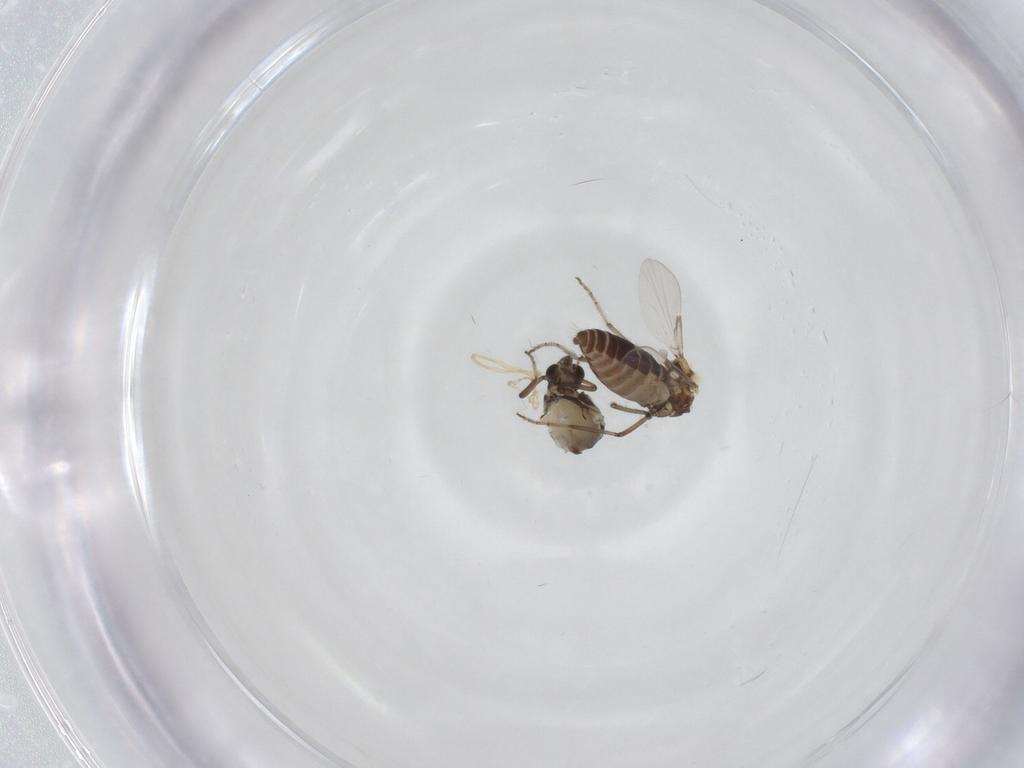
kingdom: Animalia
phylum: Arthropoda
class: Insecta
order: Diptera
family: Ceratopogonidae
